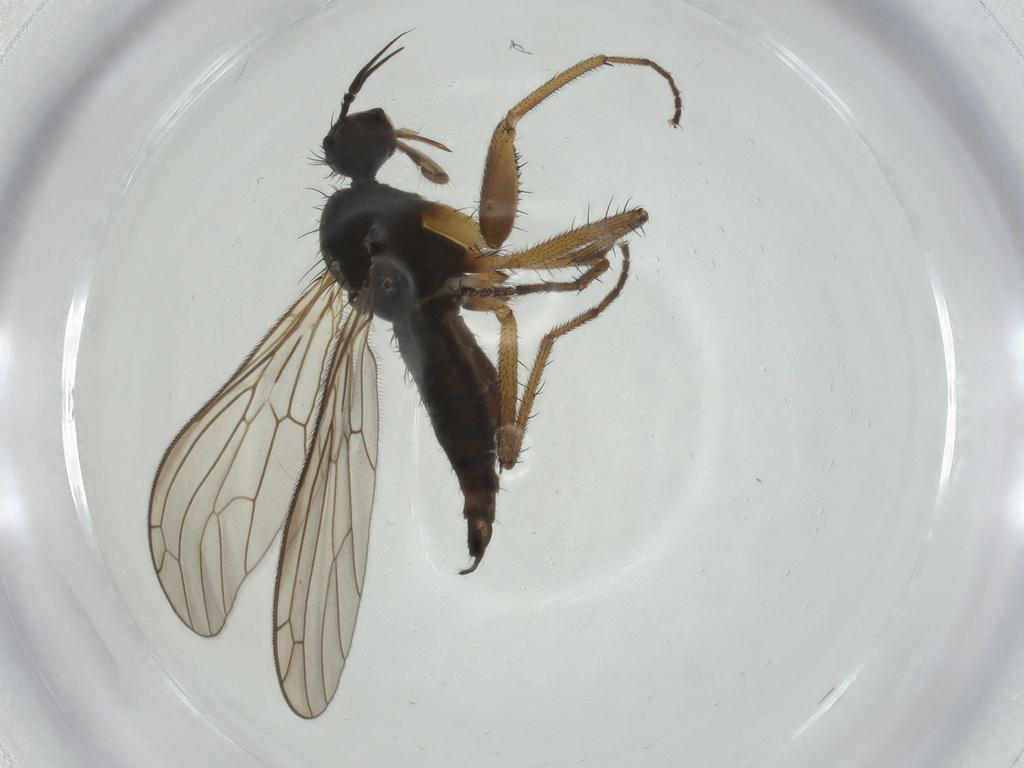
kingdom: Animalia
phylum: Arthropoda
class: Insecta
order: Diptera
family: Empididae
